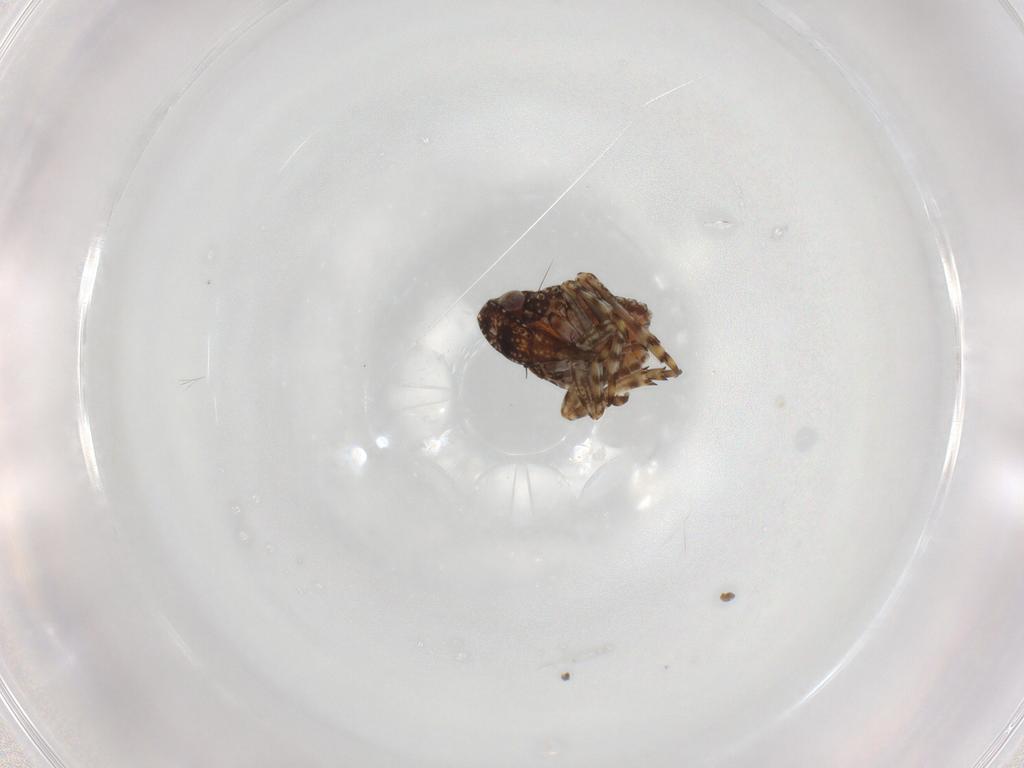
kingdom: Animalia
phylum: Arthropoda
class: Insecta
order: Hemiptera
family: Nogodinidae
